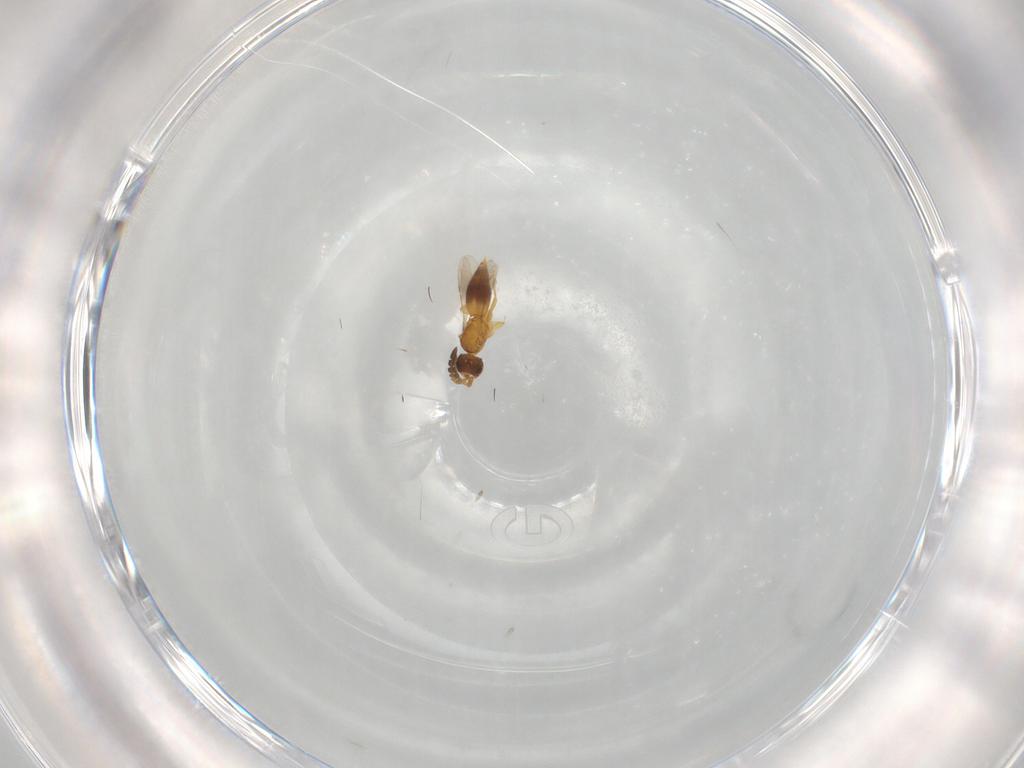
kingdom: Animalia
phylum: Arthropoda
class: Insecta
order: Hymenoptera
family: Ceraphronidae
